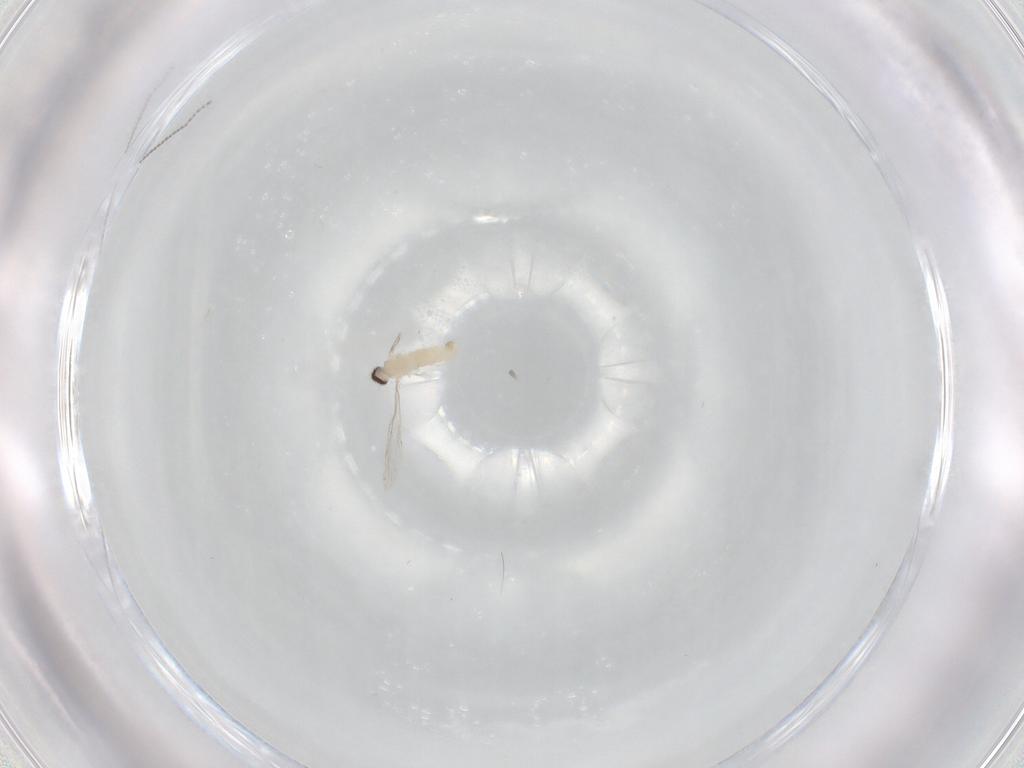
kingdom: Animalia
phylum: Arthropoda
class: Insecta
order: Diptera
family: Cecidomyiidae
